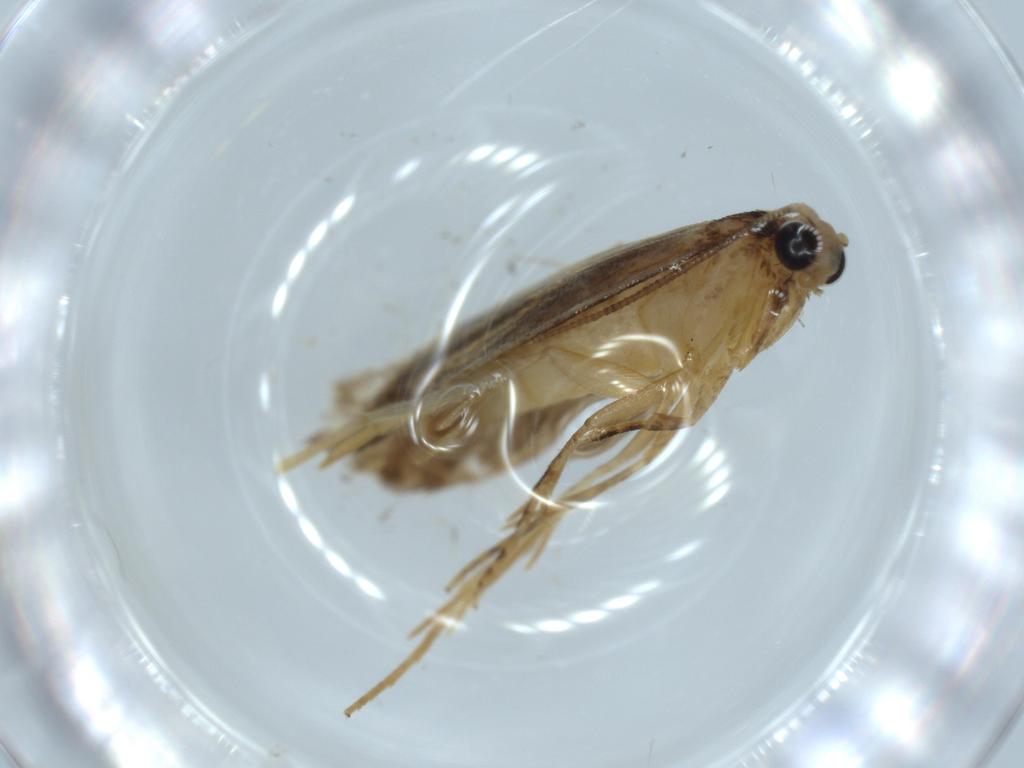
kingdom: Animalia
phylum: Arthropoda
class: Insecta
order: Lepidoptera
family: Tineidae
